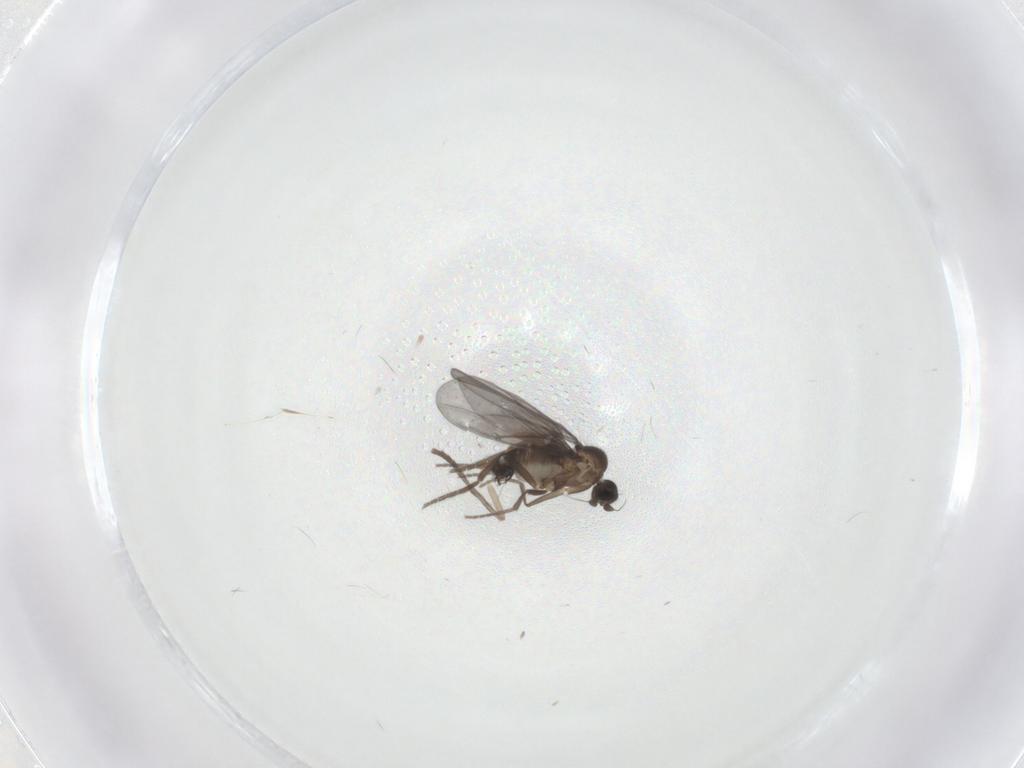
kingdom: Animalia
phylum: Arthropoda
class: Insecta
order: Diptera
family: Phoridae
